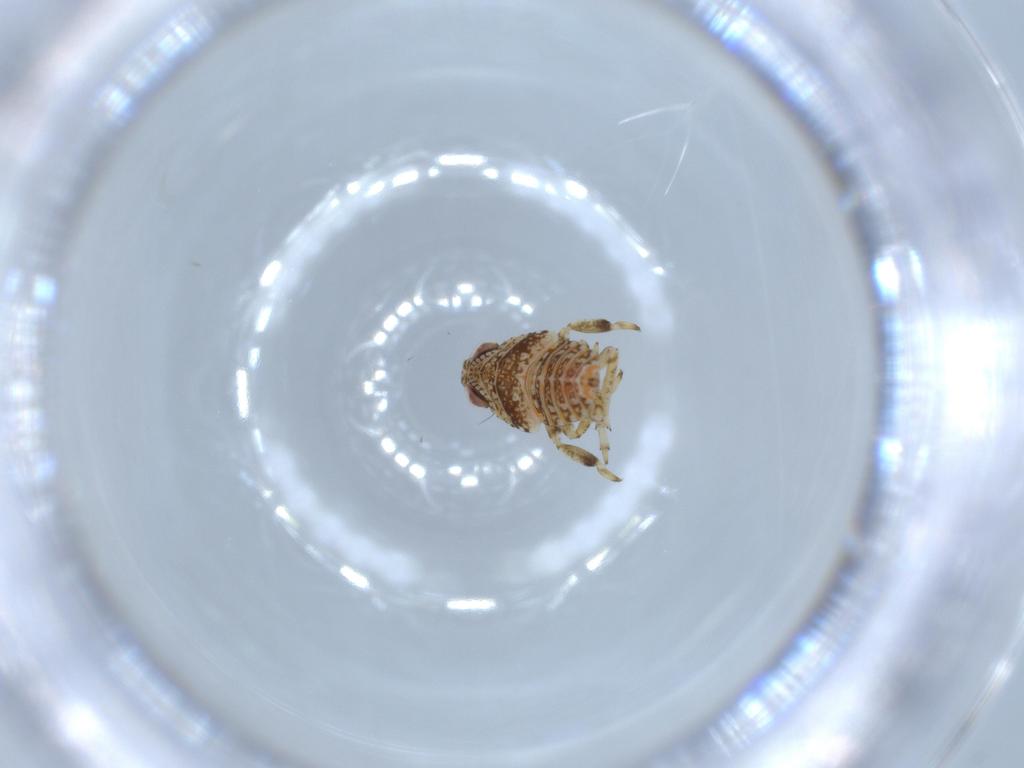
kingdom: Animalia
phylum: Arthropoda
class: Insecta
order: Hemiptera
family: Issidae
